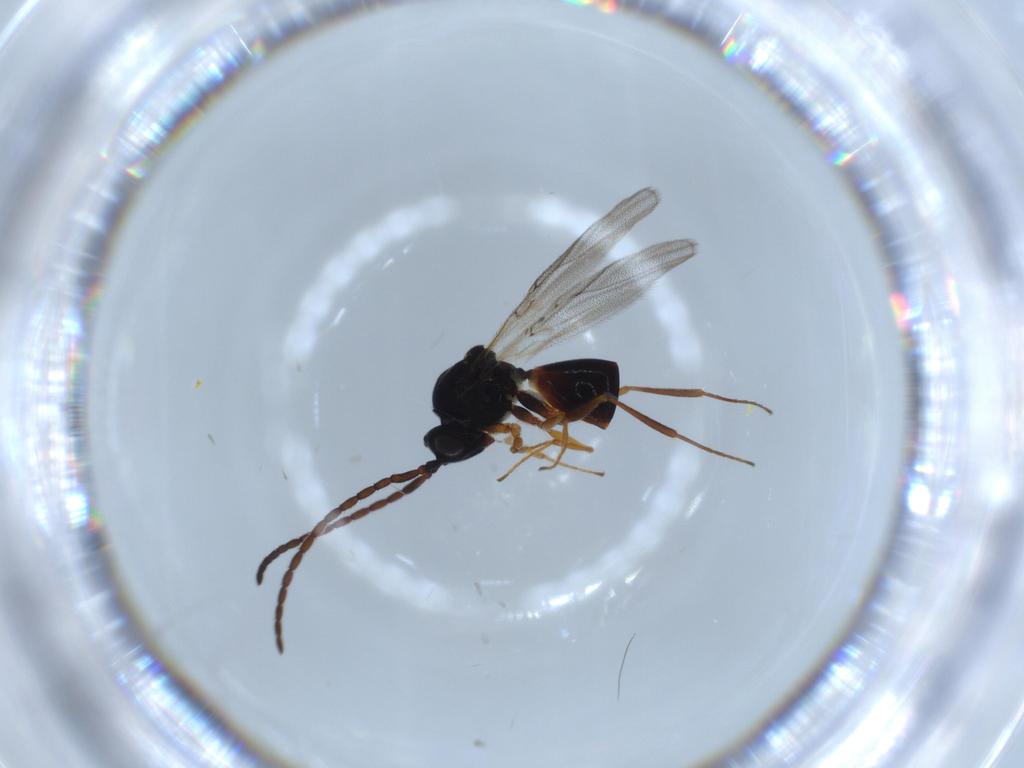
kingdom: Animalia
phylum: Arthropoda
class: Insecta
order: Hymenoptera
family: Figitidae
